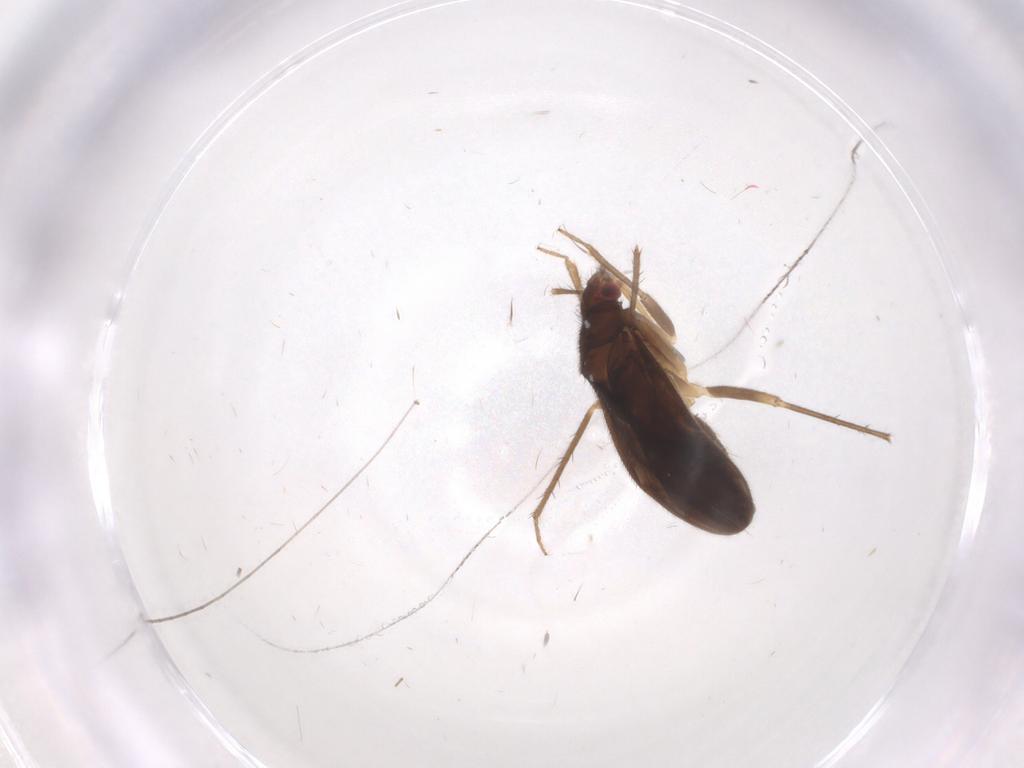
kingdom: Animalia
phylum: Arthropoda
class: Insecta
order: Hemiptera
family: Ceratocombidae
